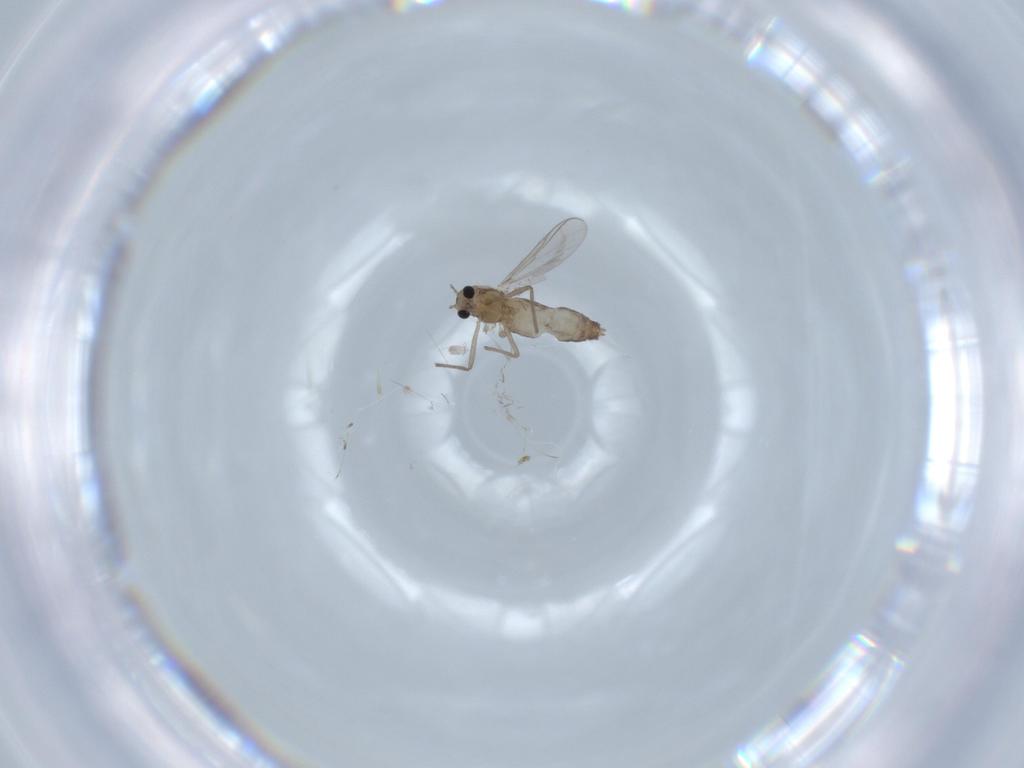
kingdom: Animalia
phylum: Arthropoda
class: Insecta
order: Diptera
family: Chironomidae
